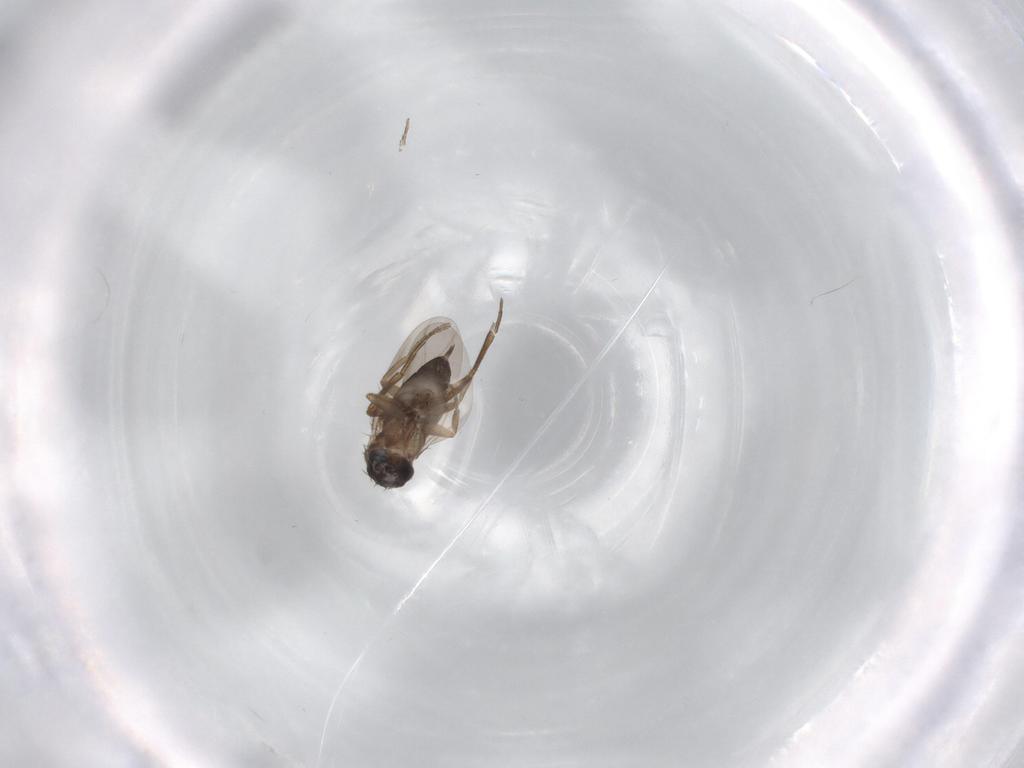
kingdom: Animalia
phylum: Arthropoda
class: Insecta
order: Diptera
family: Phoridae
